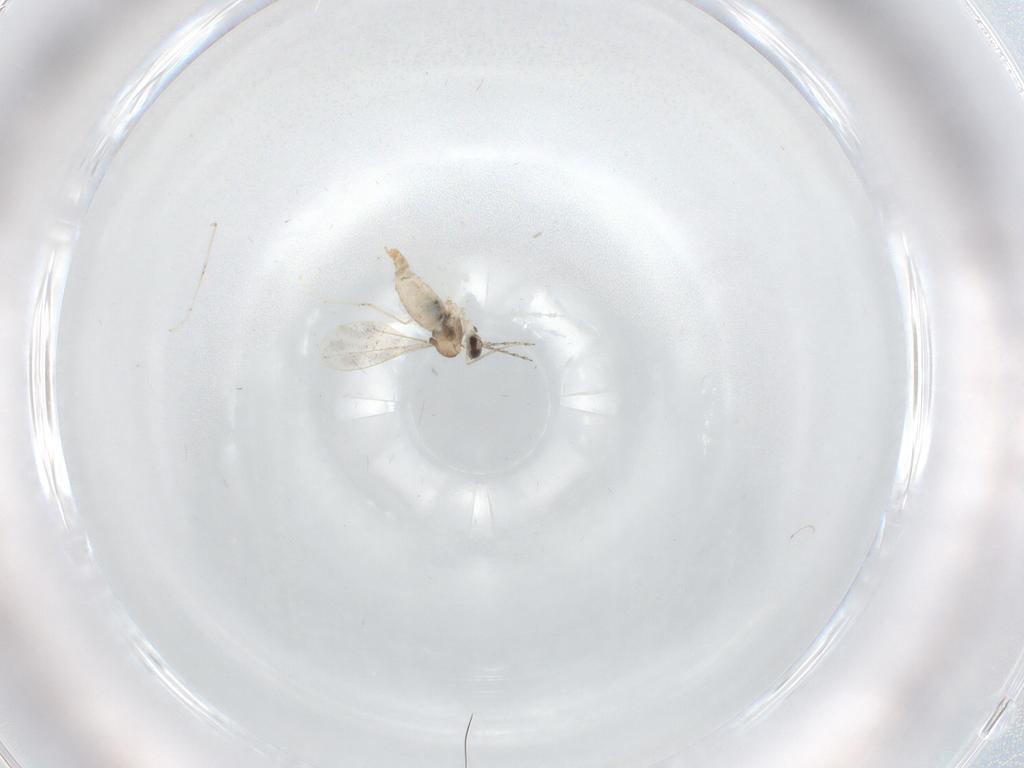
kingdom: Animalia
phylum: Arthropoda
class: Insecta
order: Diptera
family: Cecidomyiidae
